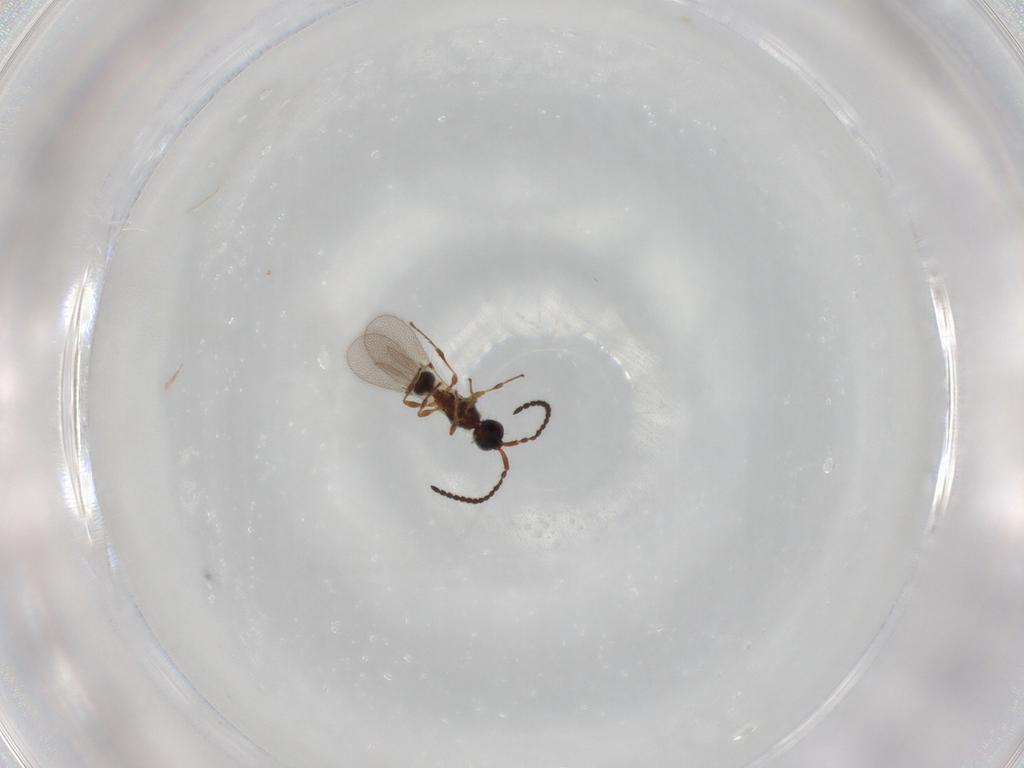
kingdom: Animalia
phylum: Arthropoda
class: Insecta
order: Hymenoptera
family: Diapriidae
